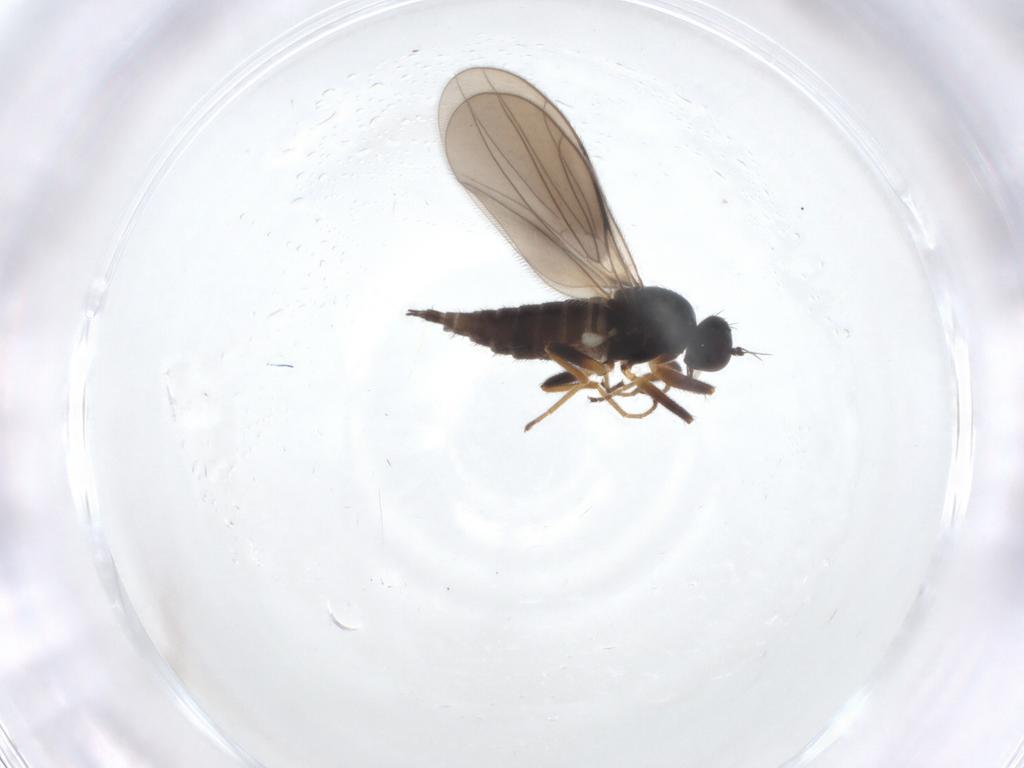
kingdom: Animalia
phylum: Arthropoda
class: Insecta
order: Diptera
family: Hybotidae
